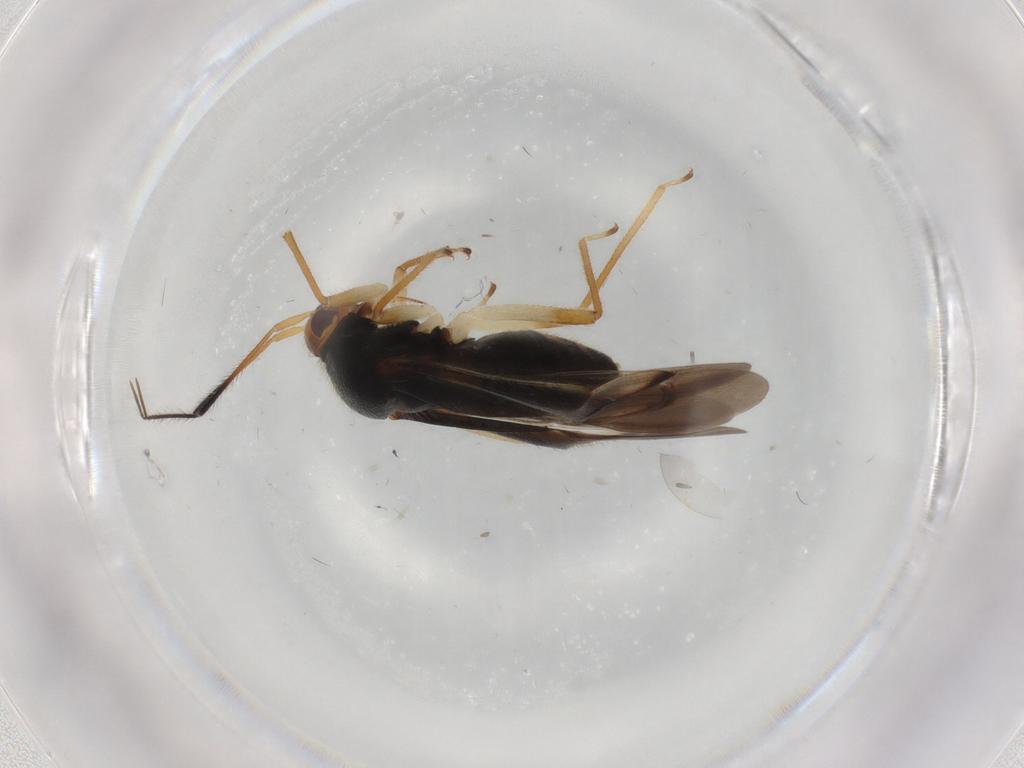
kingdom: Animalia
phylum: Arthropoda
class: Insecta
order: Hemiptera
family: Miridae
